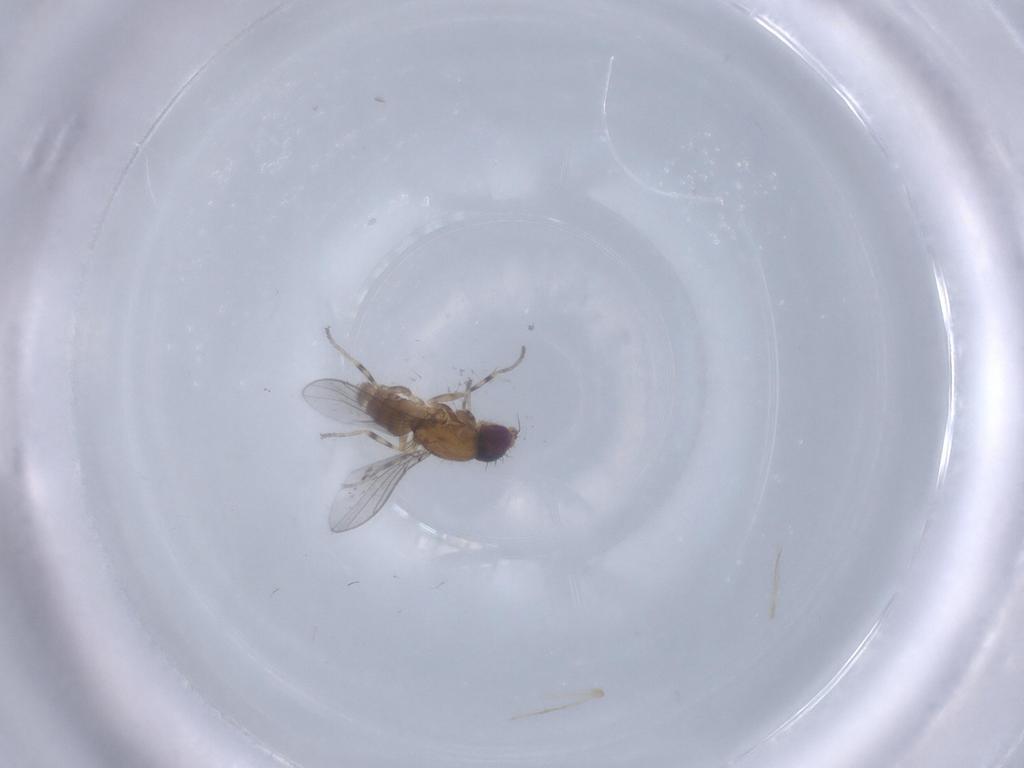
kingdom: Animalia
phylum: Arthropoda
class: Insecta
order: Diptera
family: Chloropidae
